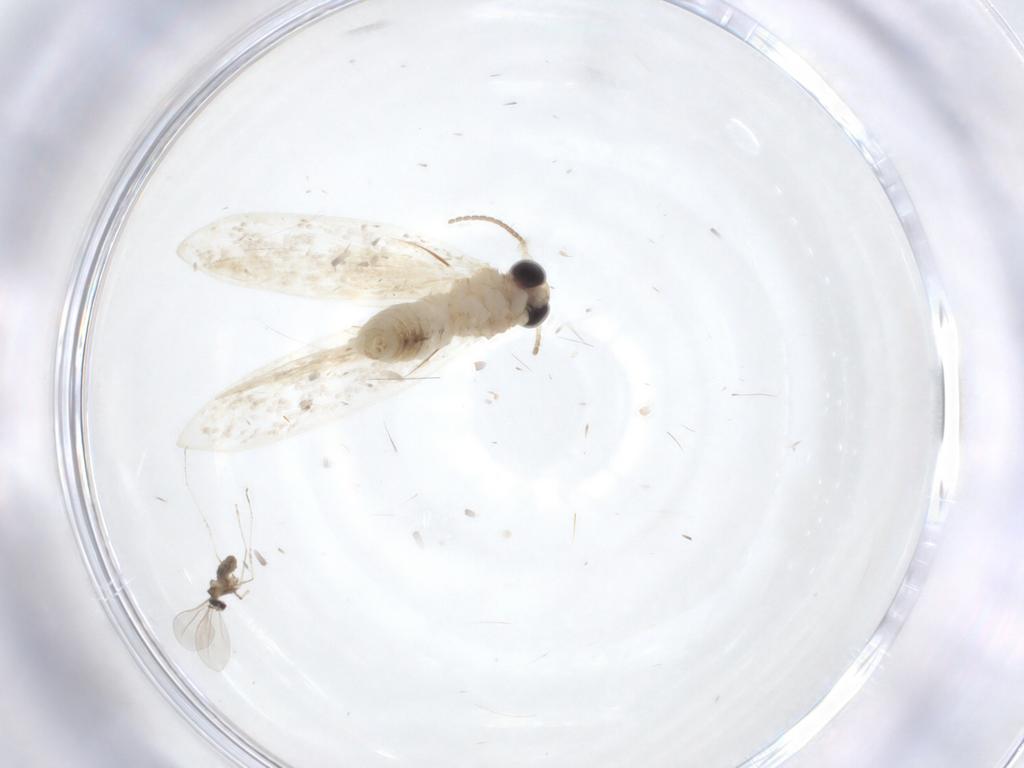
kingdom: Animalia
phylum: Arthropoda
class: Insecta
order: Lepidoptera
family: Psychidae
